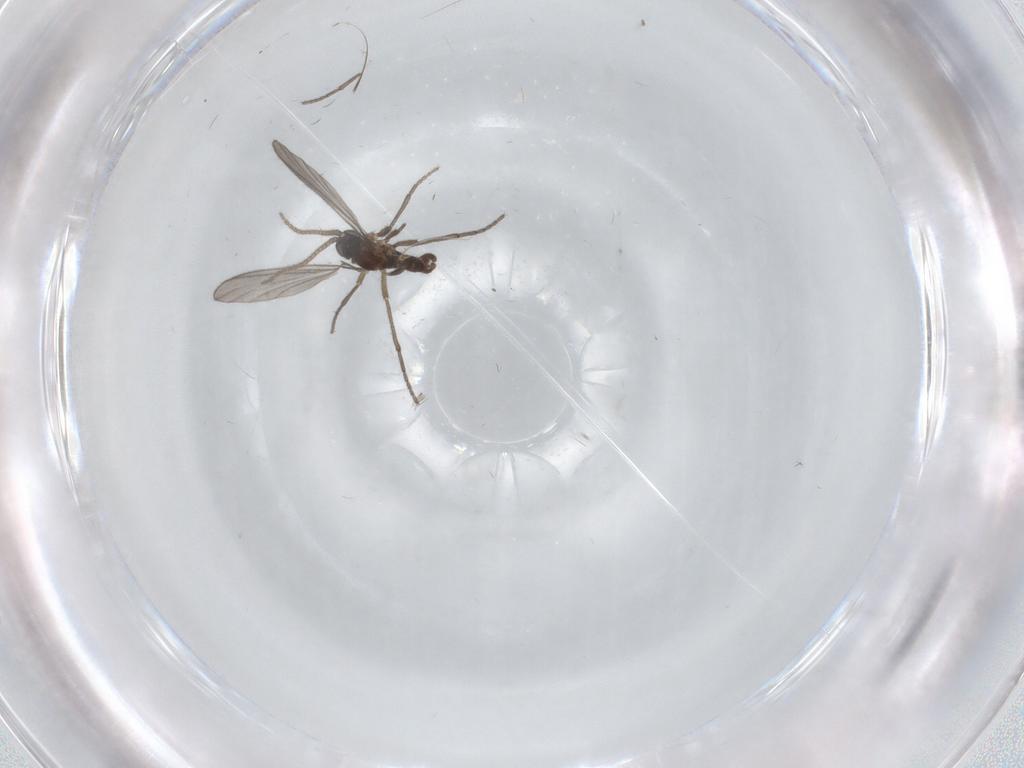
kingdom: Animalia
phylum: Arthropoda
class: Insecta
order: Diptera
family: Sciaridae
